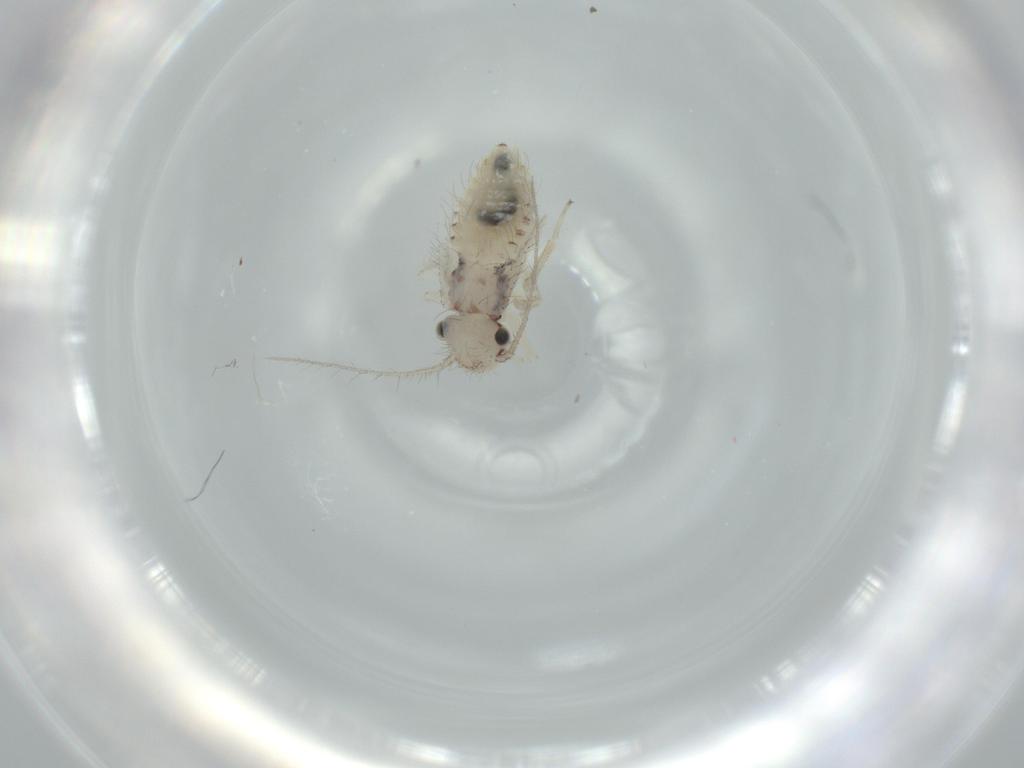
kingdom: Animalia
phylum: Arthropoda
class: Insecta
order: Psocodea
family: Pseudocaeciliidae
